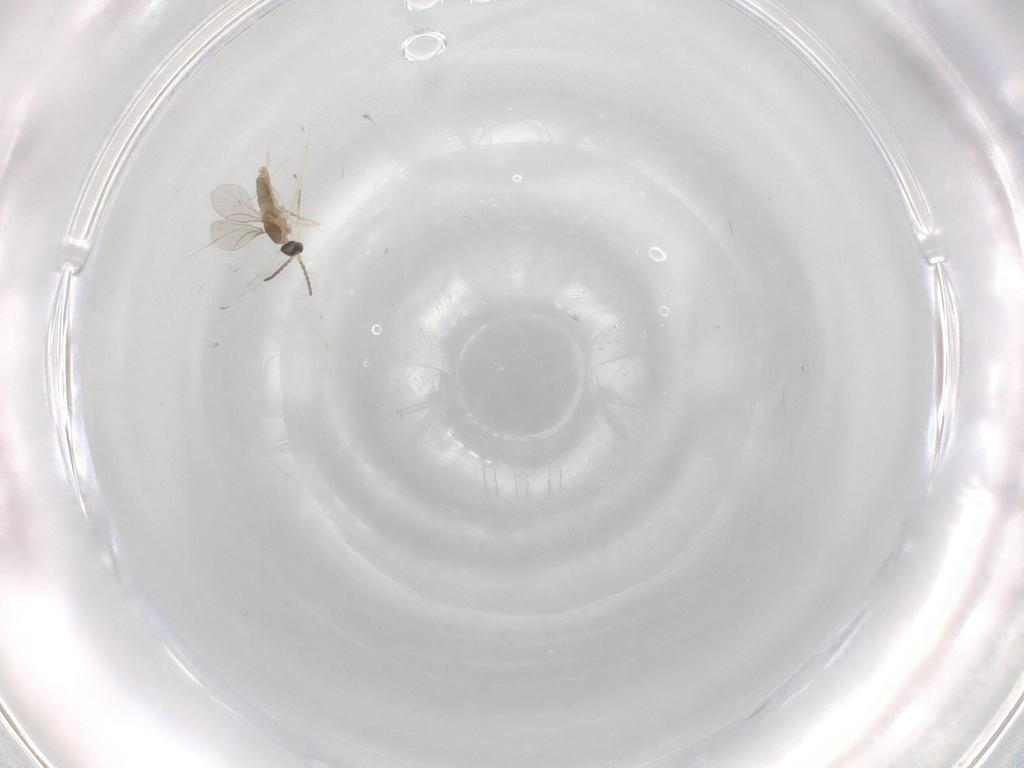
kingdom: Animalia
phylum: Arthropoda
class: Insecta
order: Diptera
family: Cecidomyiidae
